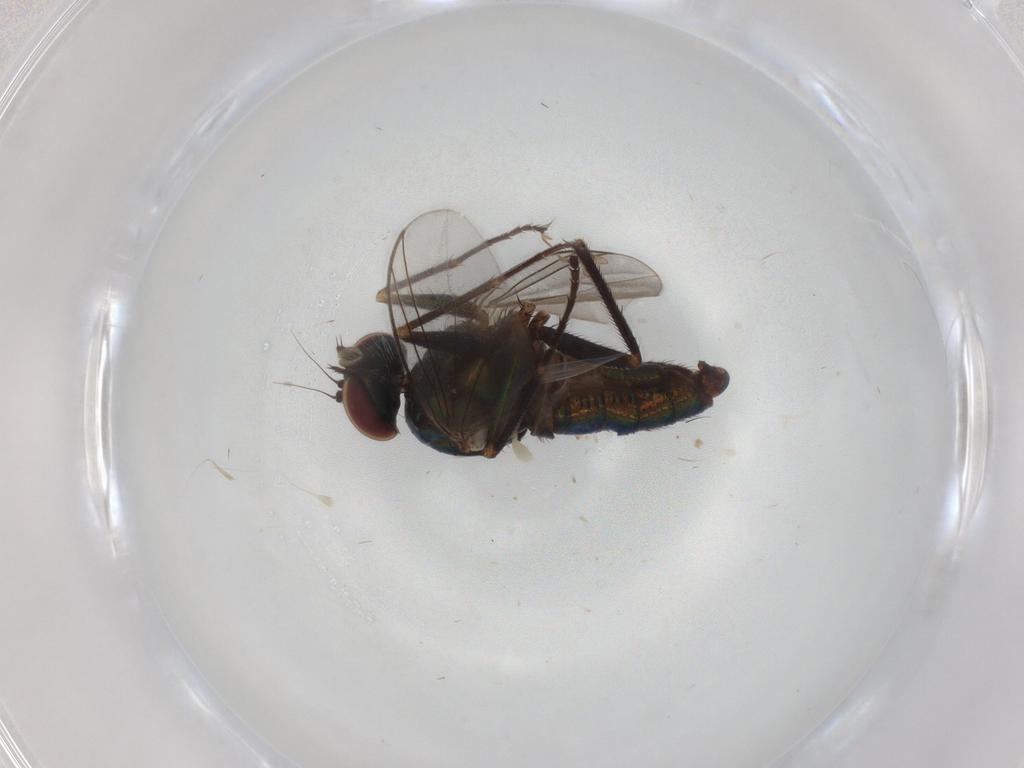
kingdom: Animalia
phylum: Arthropoda
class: Insecta
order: Diptera
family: Dolichopodidae
